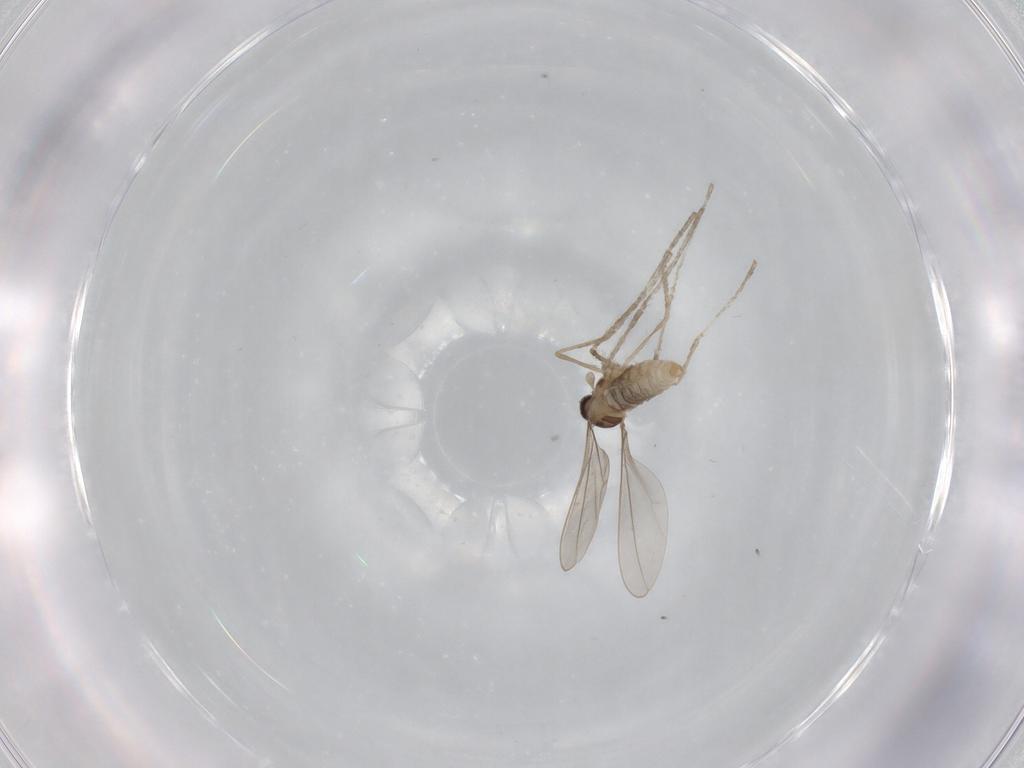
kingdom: Animalia
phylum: Arthropoda
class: Insecta
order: Diptera
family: Cecidomyiidae
